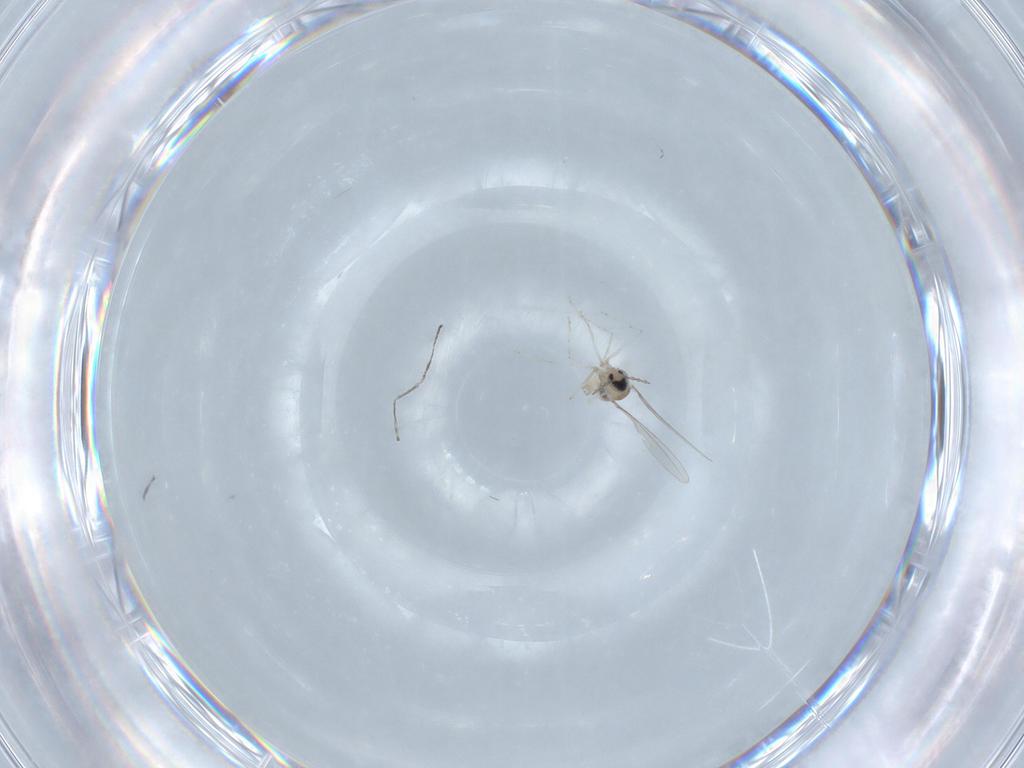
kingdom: Animalia
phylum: Arthropoda
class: Insecta
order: Diptera
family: Cecidomyiidae
